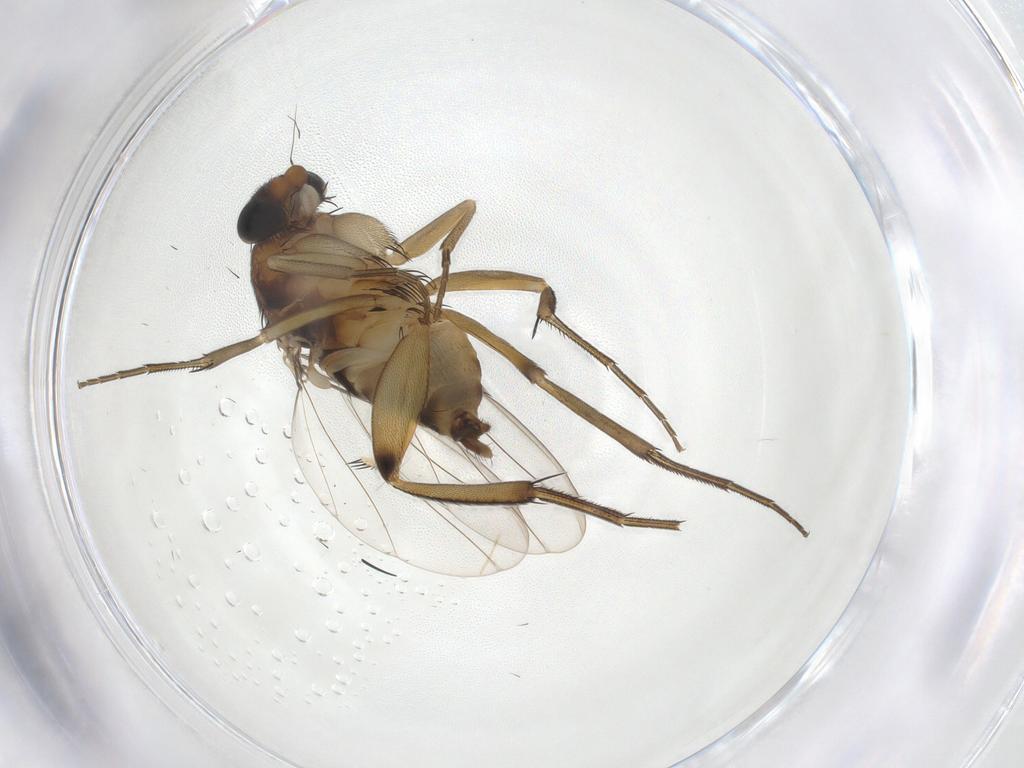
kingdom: Animalia
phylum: Arthropoda
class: Insecta
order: Diptera
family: Phoridae
